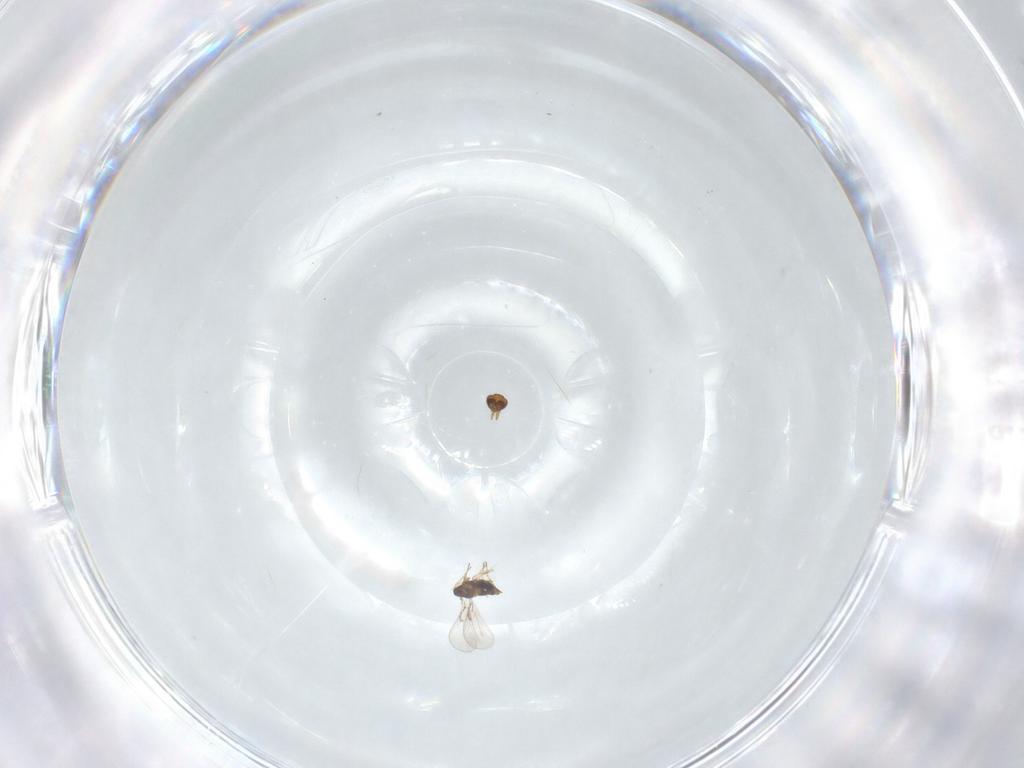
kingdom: Animalia
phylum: Arthropoda
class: Insecta
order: Hymenoptera
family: Trichogrammatidae
